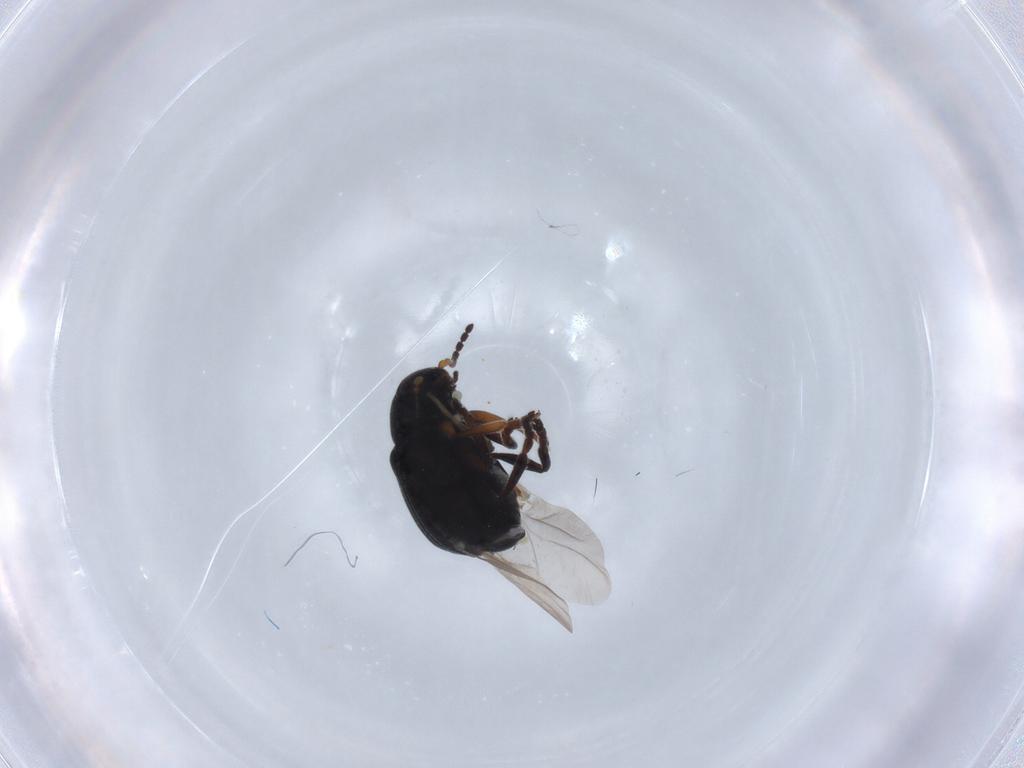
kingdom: Animalia
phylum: Arthropoda
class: Insecta
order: Coleoptera
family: Chrysomelidae
